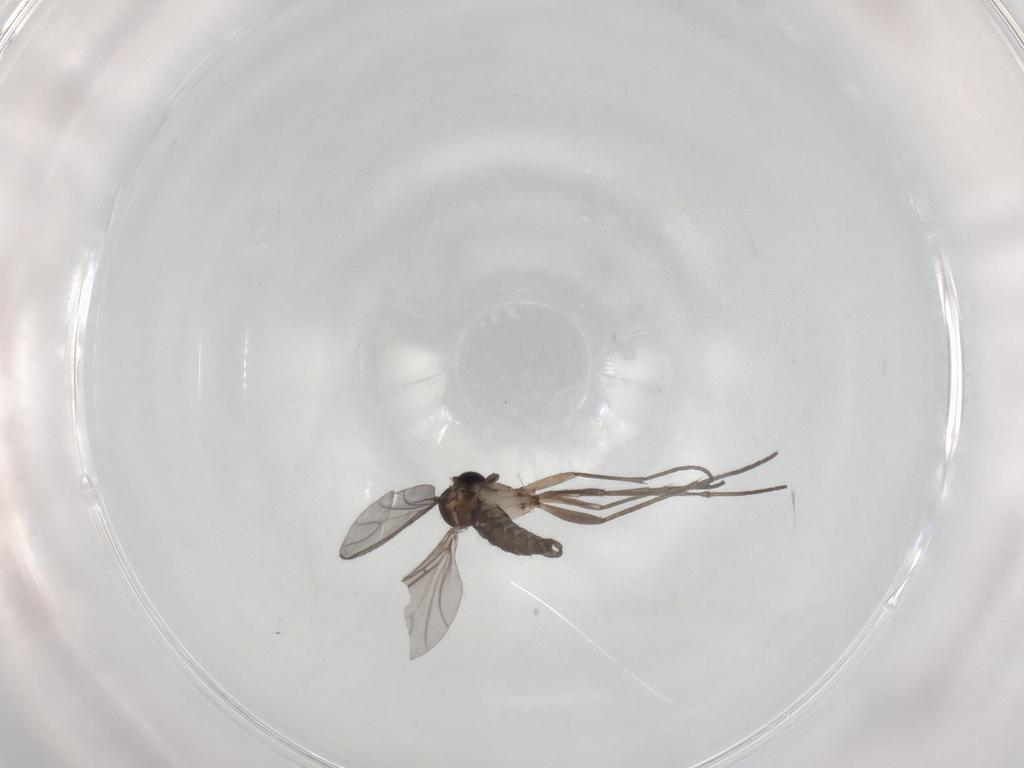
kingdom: Animalia
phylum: Arthropoda
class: Insecta
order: Diptera
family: Sciaridae
